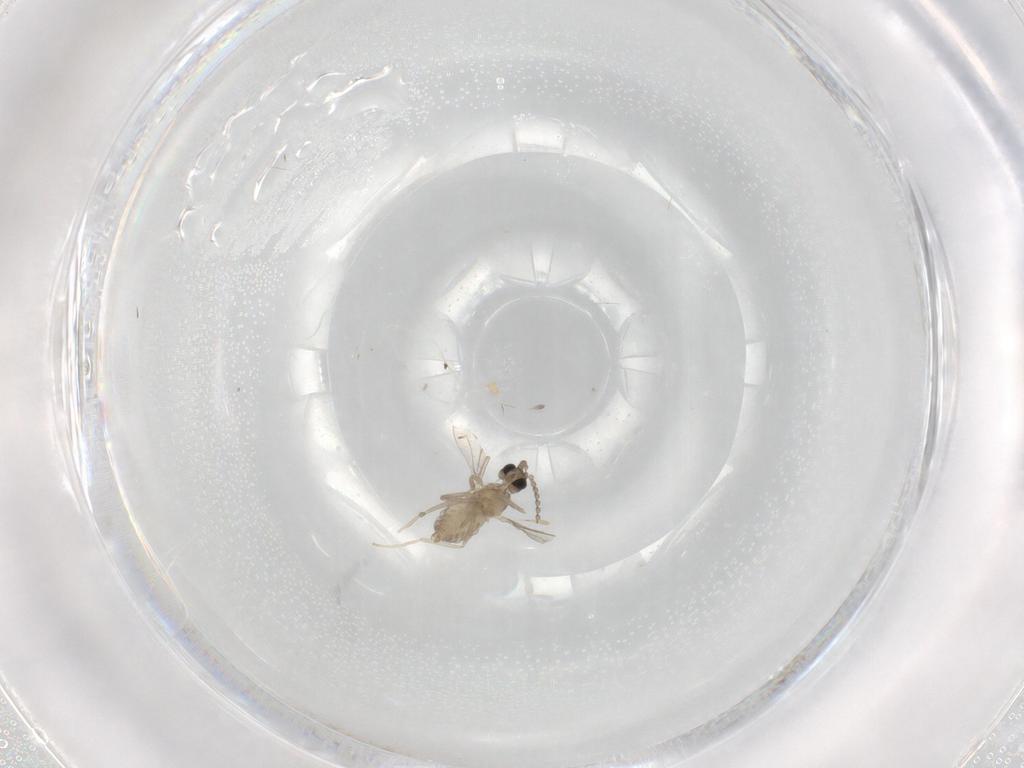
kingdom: Animalia
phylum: Arthropoda
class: Insecta
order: Diptera
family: Cecidomyiidae
